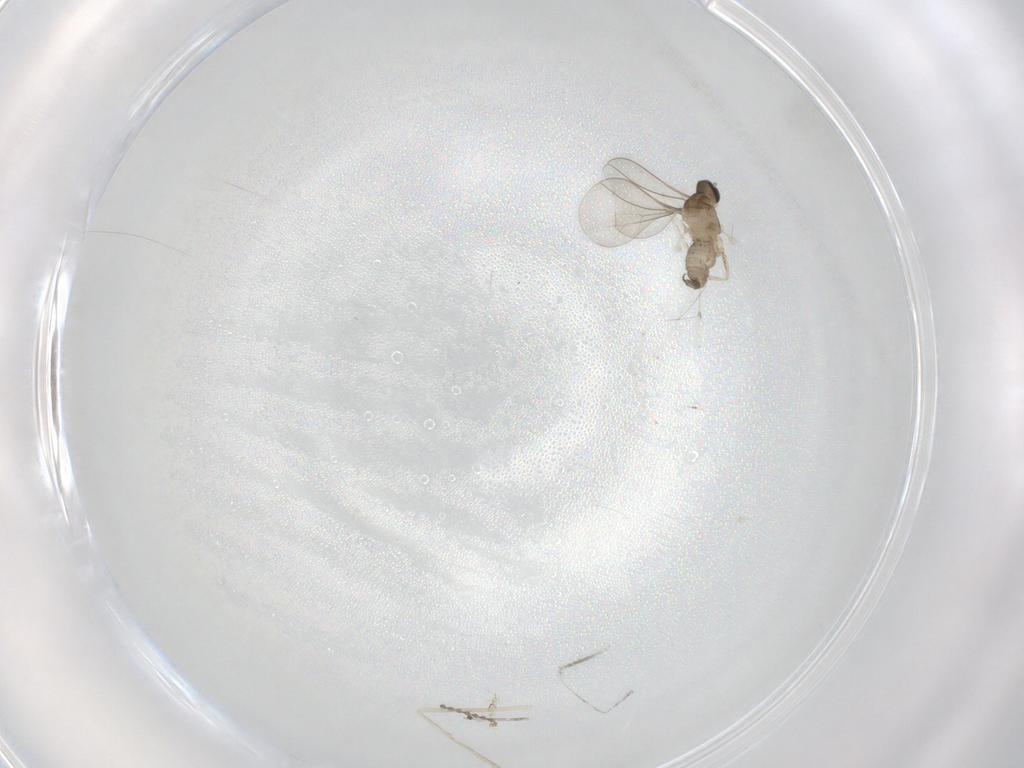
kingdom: Animalia
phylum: Arthropoda
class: Insecta
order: Diptera
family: Cecidomyiidae
